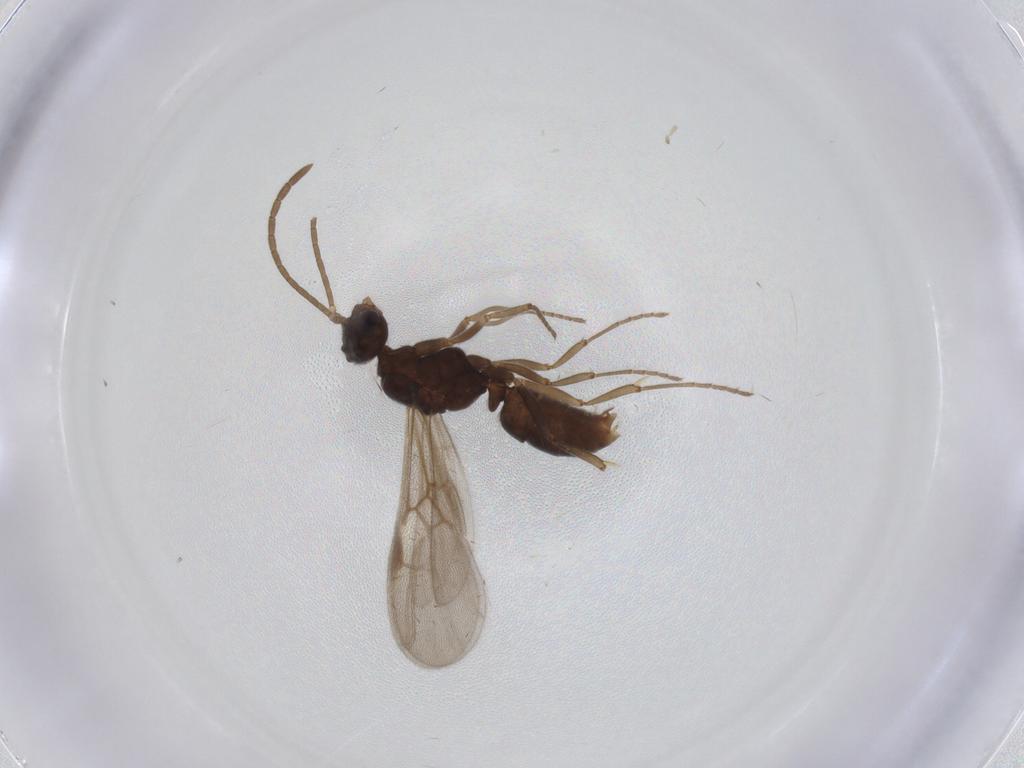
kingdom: Animalia
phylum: Arthropoda
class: Insecta
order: Hymenoptera
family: Formicidae
